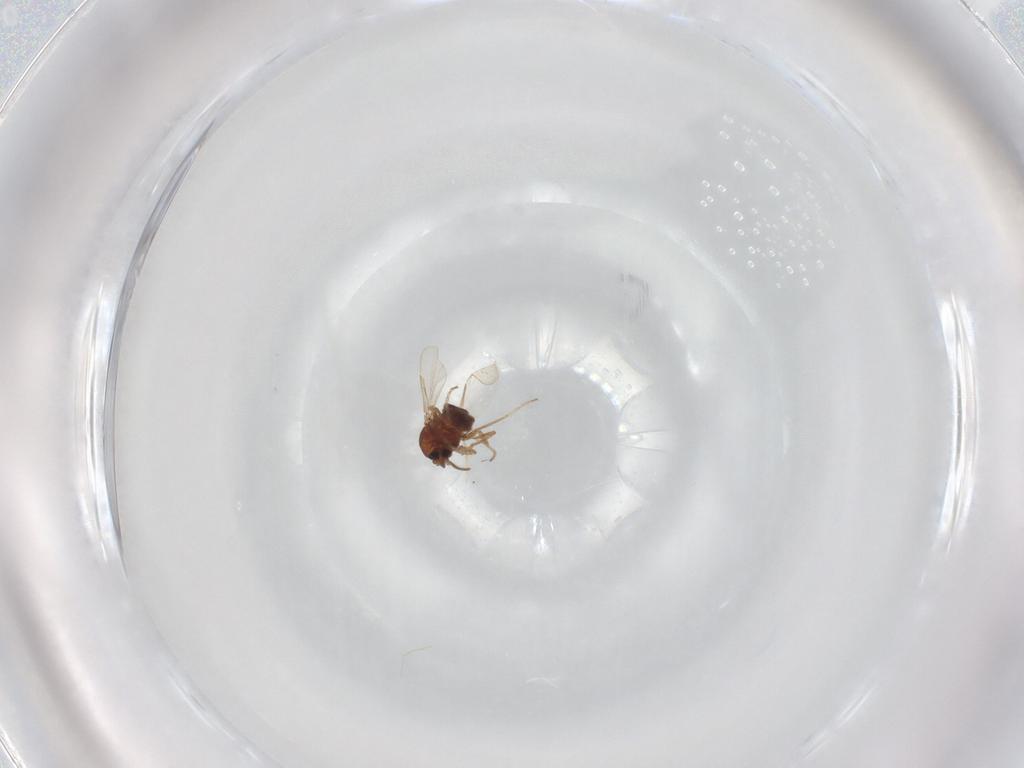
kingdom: Animalia
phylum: Arthropoda
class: Insecta
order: Diptera
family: Ceratopogonidae
